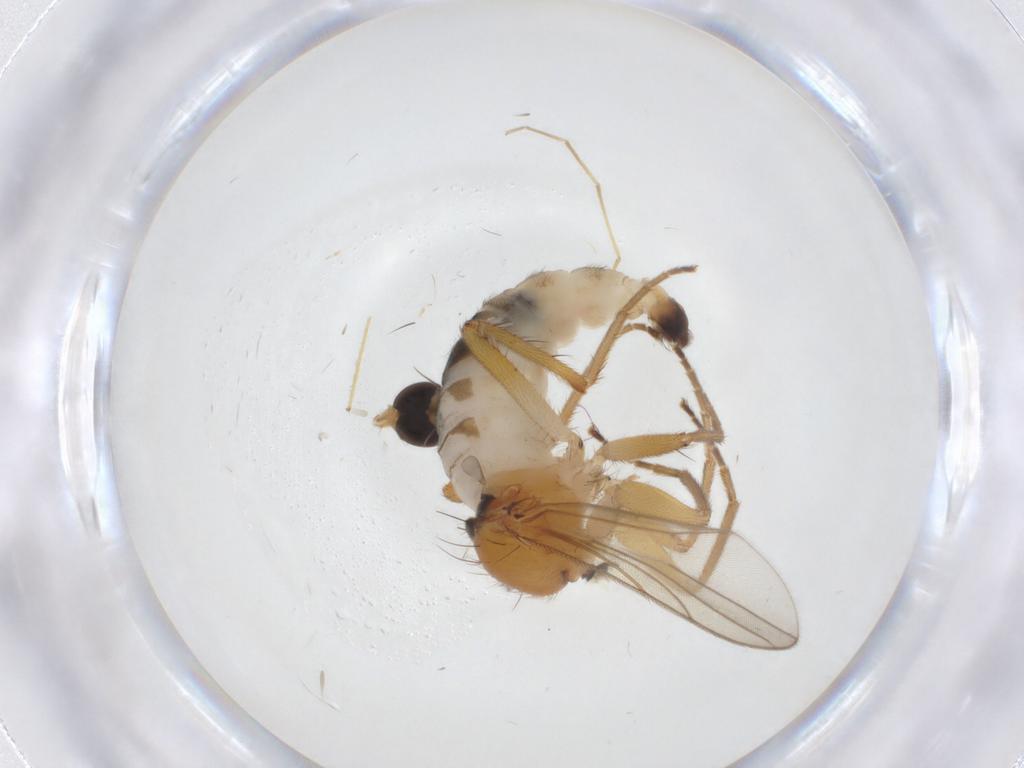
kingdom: Animalia
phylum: Arthropoda
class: Insecta
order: Diptera
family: Hybotidae
